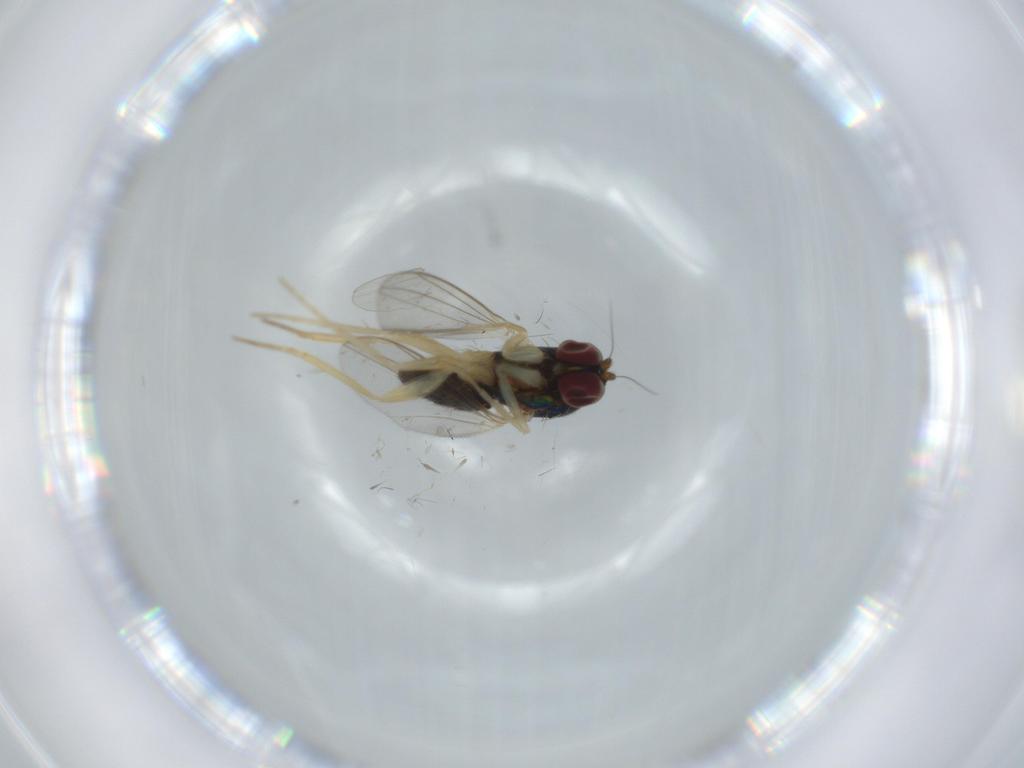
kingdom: Animalia
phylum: Arthropoda
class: Insecta
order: Diptera
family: Dolichopodidae
